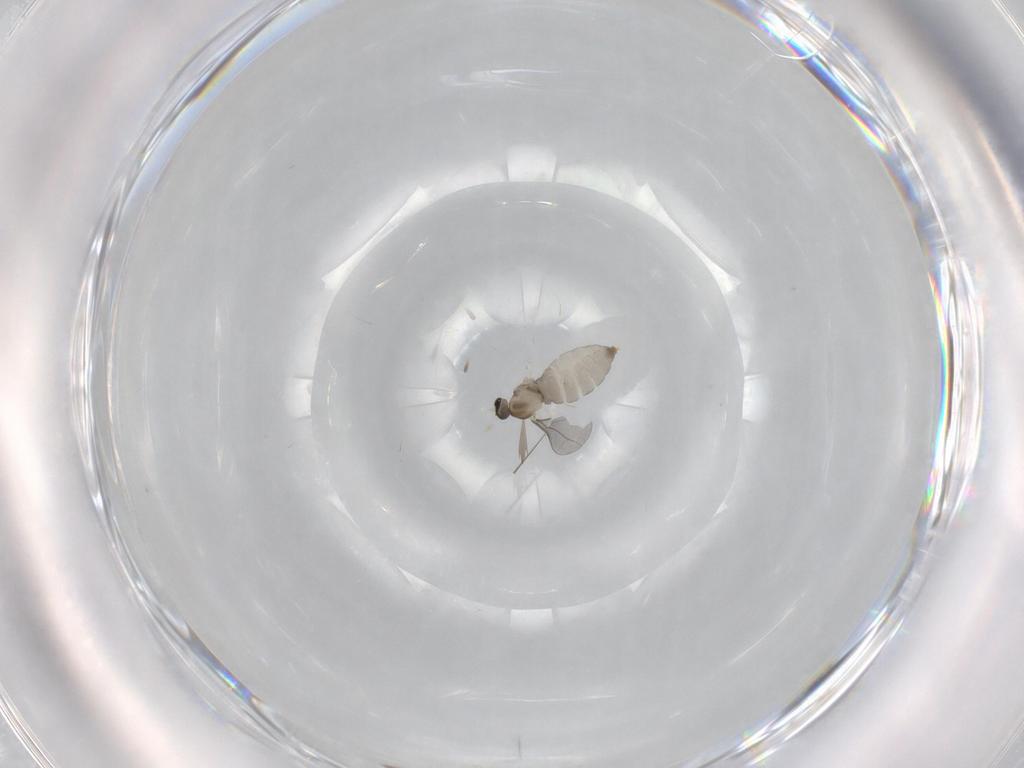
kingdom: Animalia
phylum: Arthropoda
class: Insecta
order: Diptera
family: Cecidomyiidae
